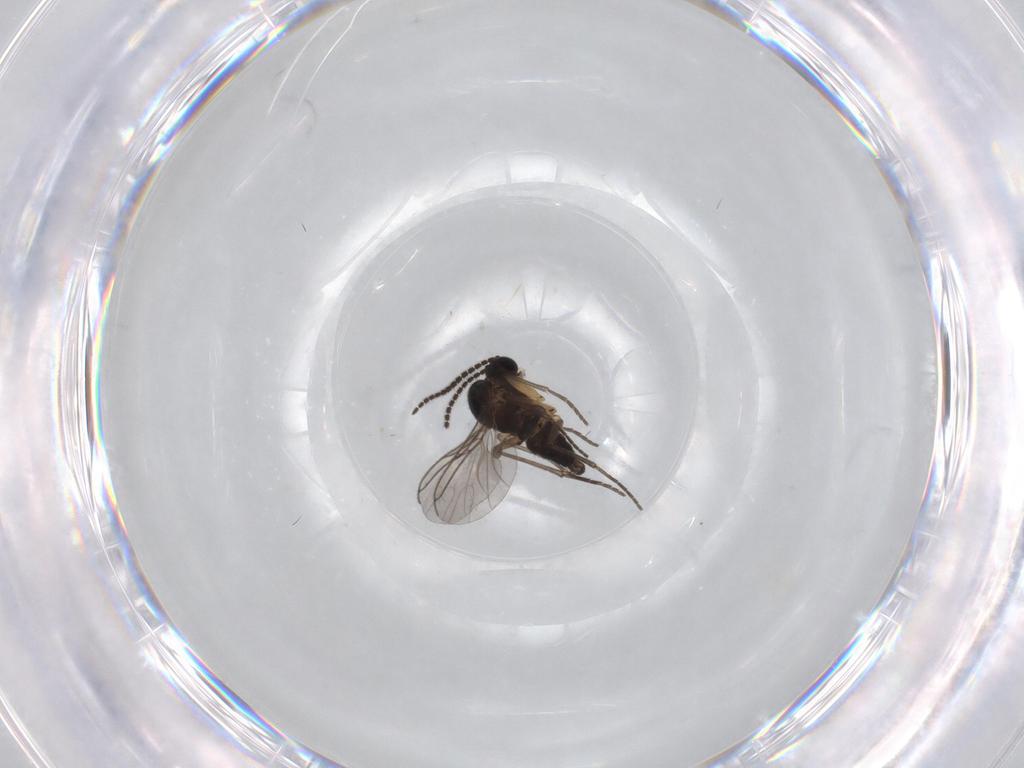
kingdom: Animalia
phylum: Arthropoda
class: Insecta
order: Diptera
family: Sciaridae
